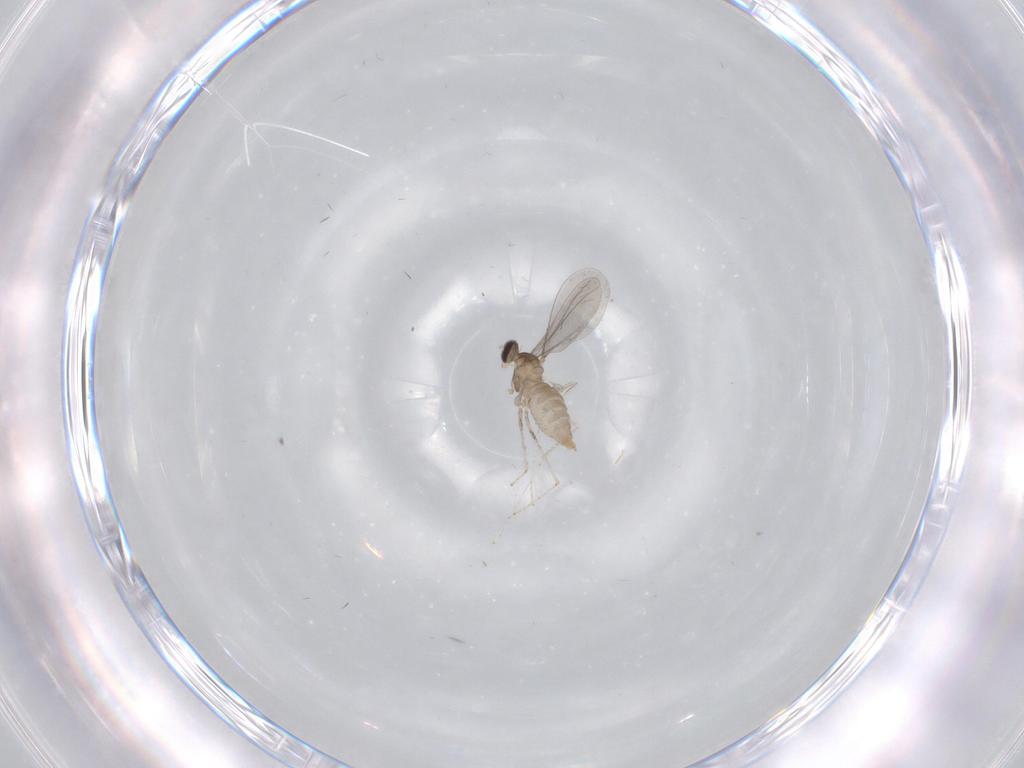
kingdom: Animalia
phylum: Arthropoda
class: Insecta
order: Diptera
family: Cecidomyiidae
